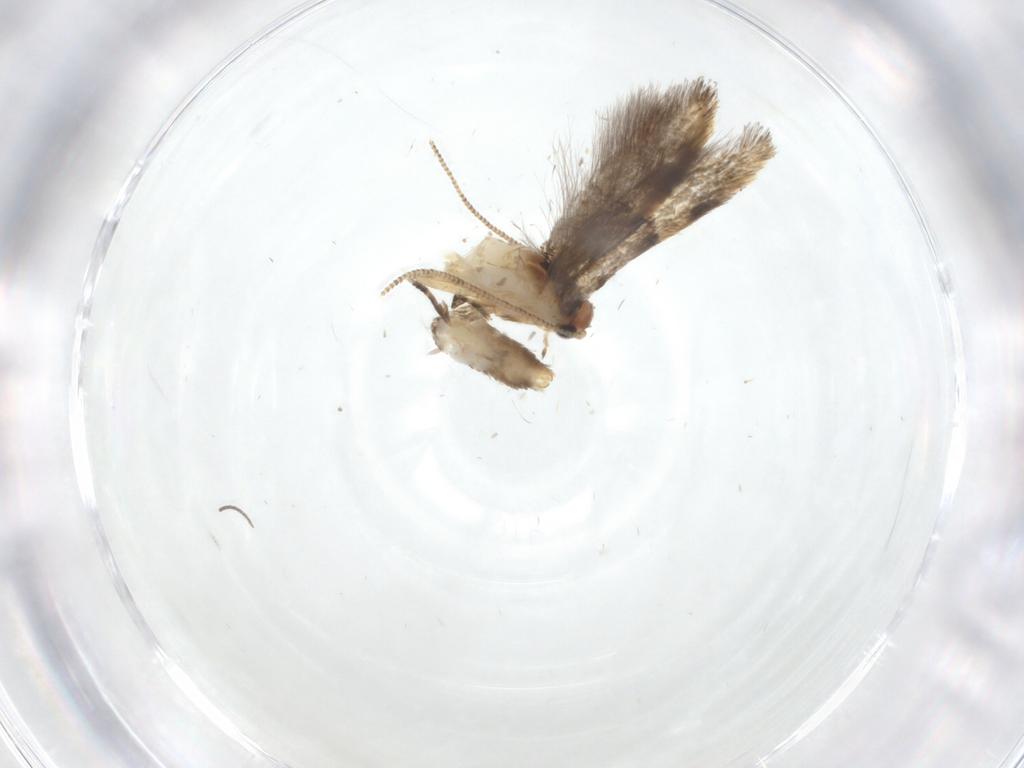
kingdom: Animalia
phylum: Arthropoda
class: Insecta
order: Lepidoptera
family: Tineidae
